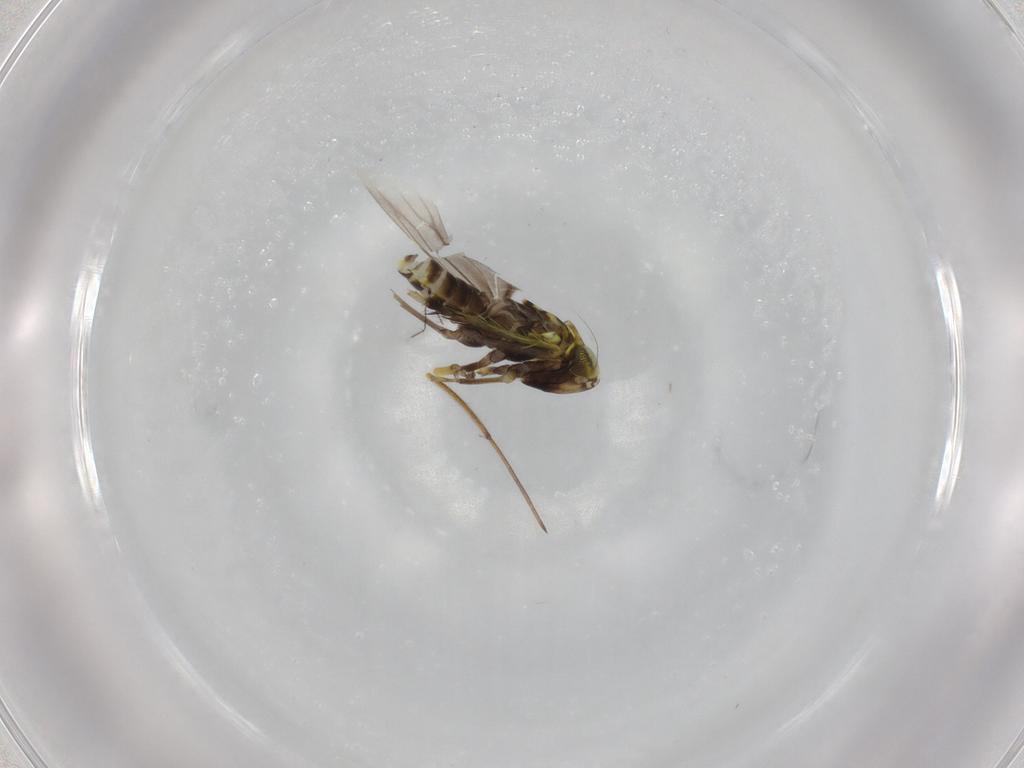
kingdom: Animalia
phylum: Arthropoda
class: Insecta
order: Hemiptera
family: Cicadellidae
